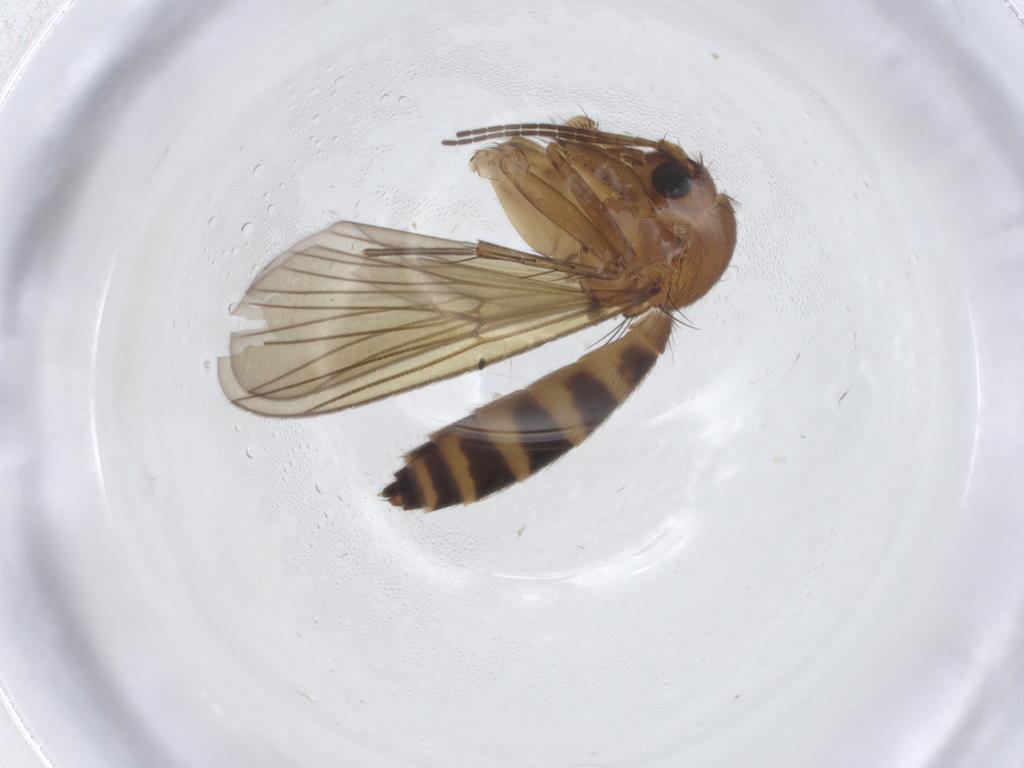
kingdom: Animalia
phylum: Arthropoda
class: Insecta
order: Diptera
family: Mycetophilidae
